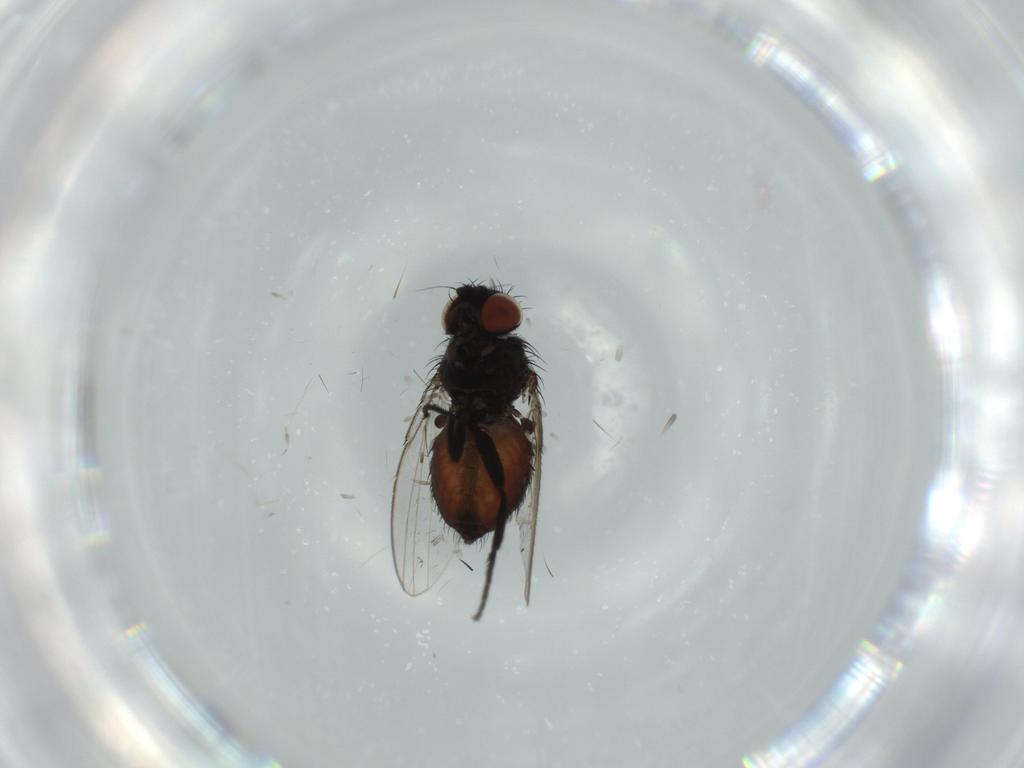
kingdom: Animalia
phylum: Arthropoda
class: Insecta
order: Diptera
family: Milichiidae
